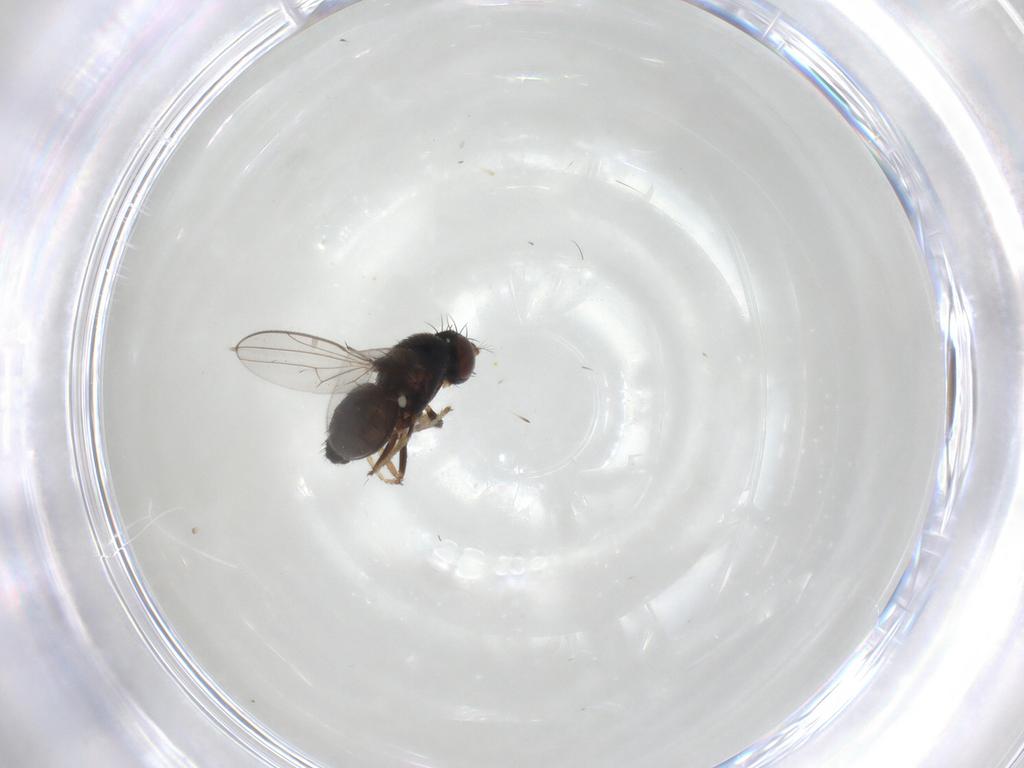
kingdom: Animalia
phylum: Arthropoda
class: Insecta
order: Diptera
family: Ephydridae
